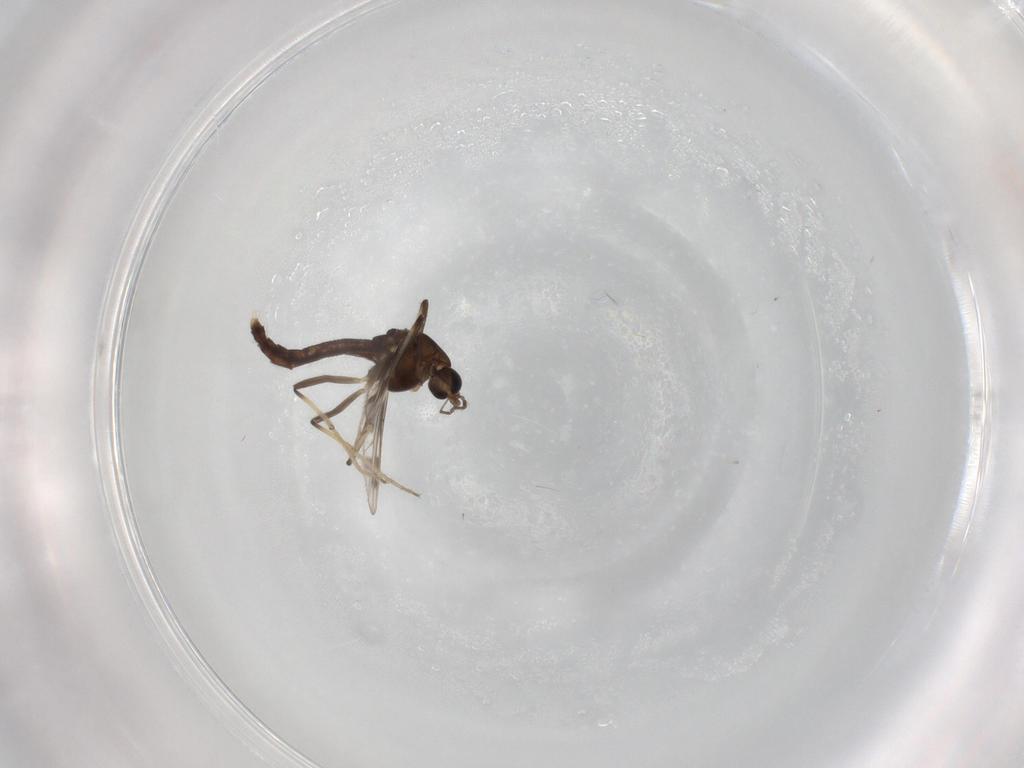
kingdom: Animalia
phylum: Arthropoda
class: Insecta
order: Diptera
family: Chironomidae
